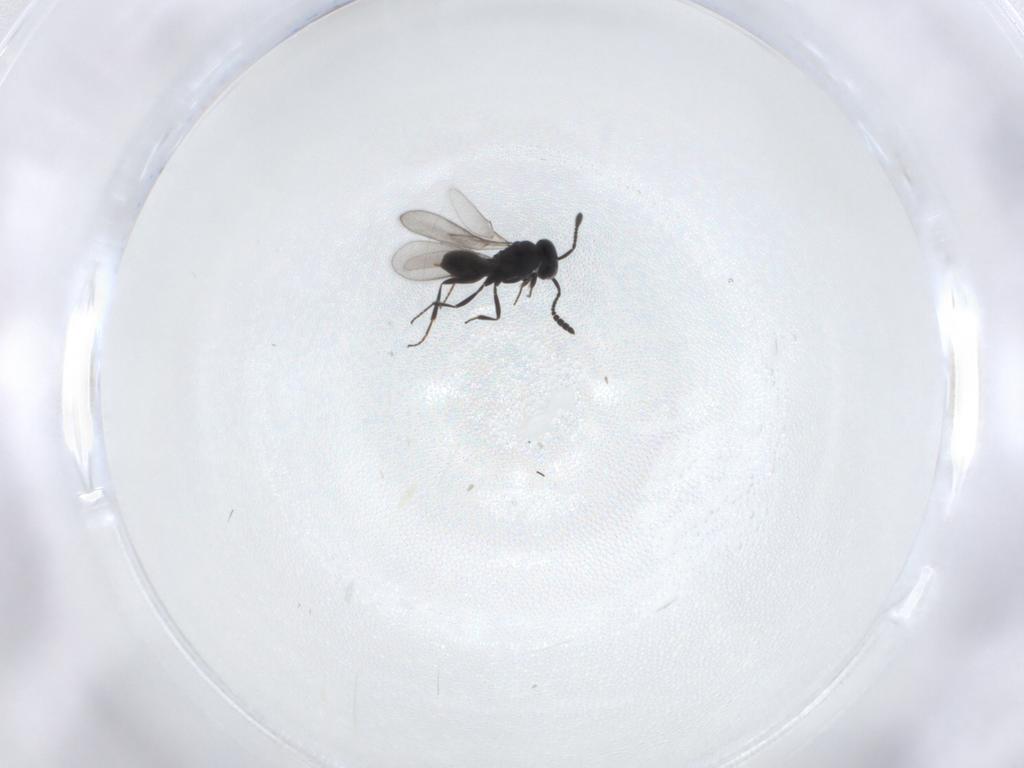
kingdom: Animalia
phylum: Arthropoda
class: Insecta
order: Hymenoptera
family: Scelionidae
